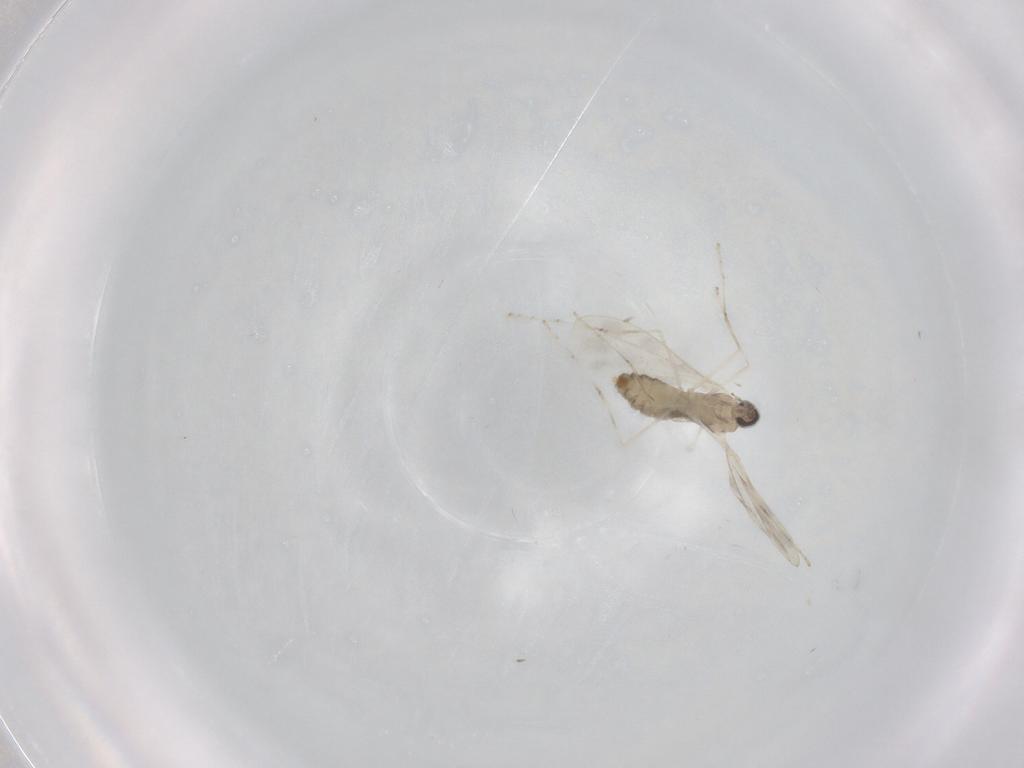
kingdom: Animalia
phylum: Arthropoda
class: Insecta
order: Diptera
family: Cecidomyiidae
